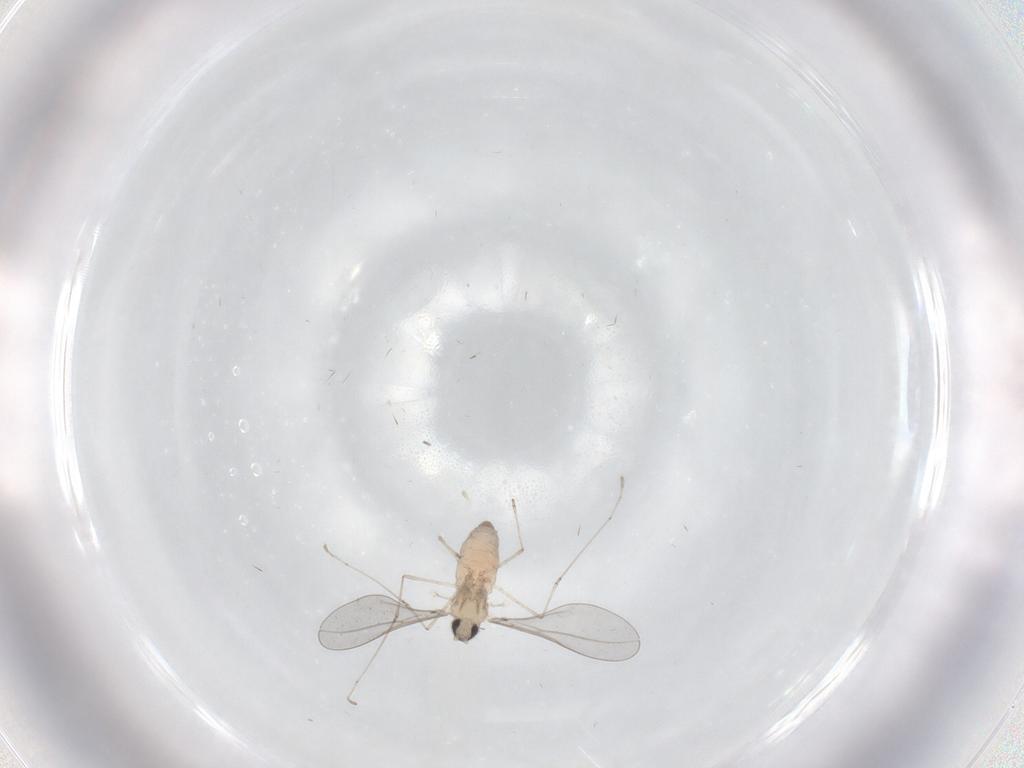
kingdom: Animalia
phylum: Arthropoda
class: Insecta
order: Diptera
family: Cecidomyiidae
